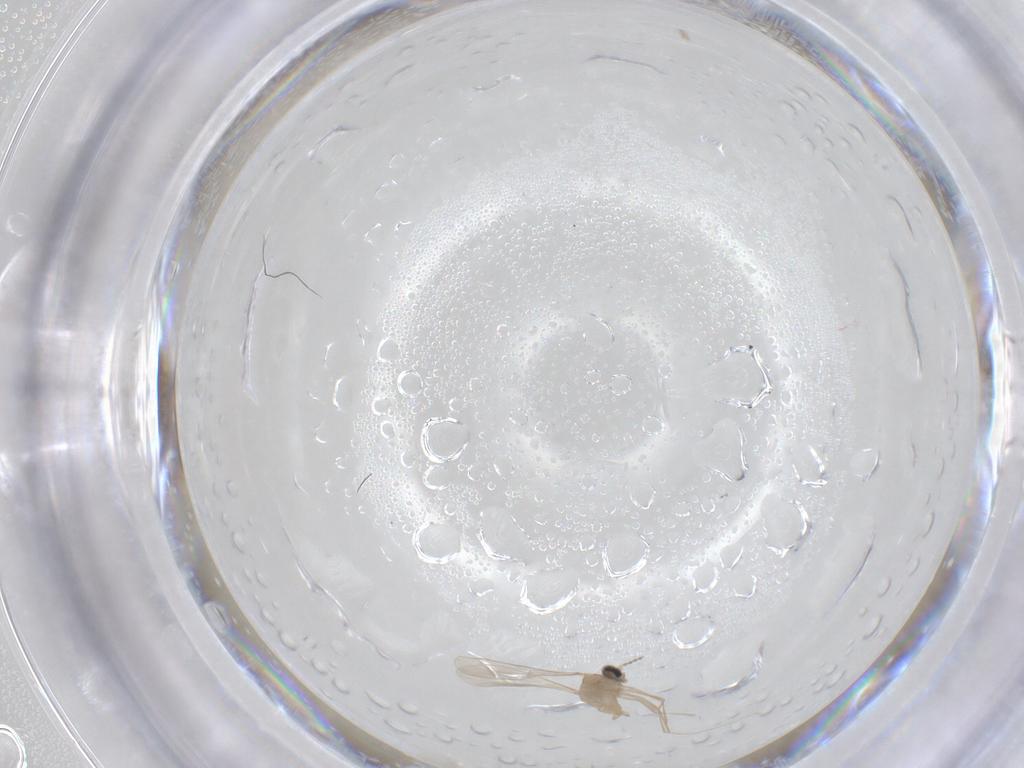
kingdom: Animalia
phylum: Arthropoda
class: Insecta
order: Diptera
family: Cecidomyiidae
